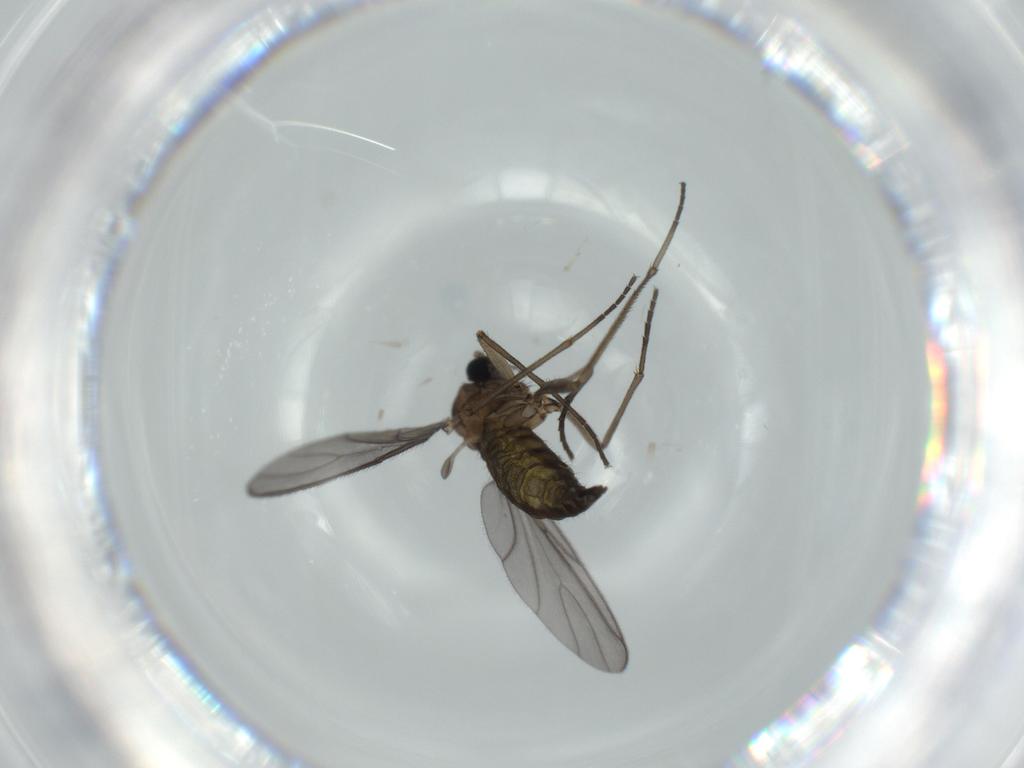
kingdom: Animalia
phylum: Arthropoda
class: Insecta
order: Diptera
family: Sciaridae
